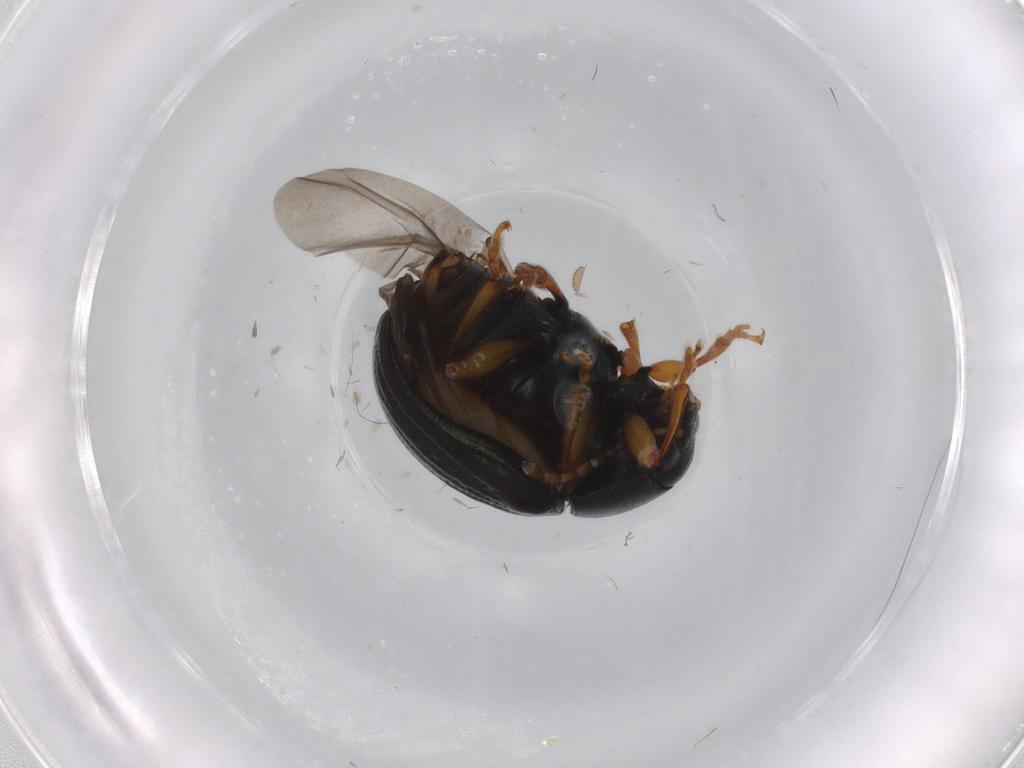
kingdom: Animalia
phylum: Arthropoda
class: Insecta
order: Coleoptera
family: Chrysomelidae
